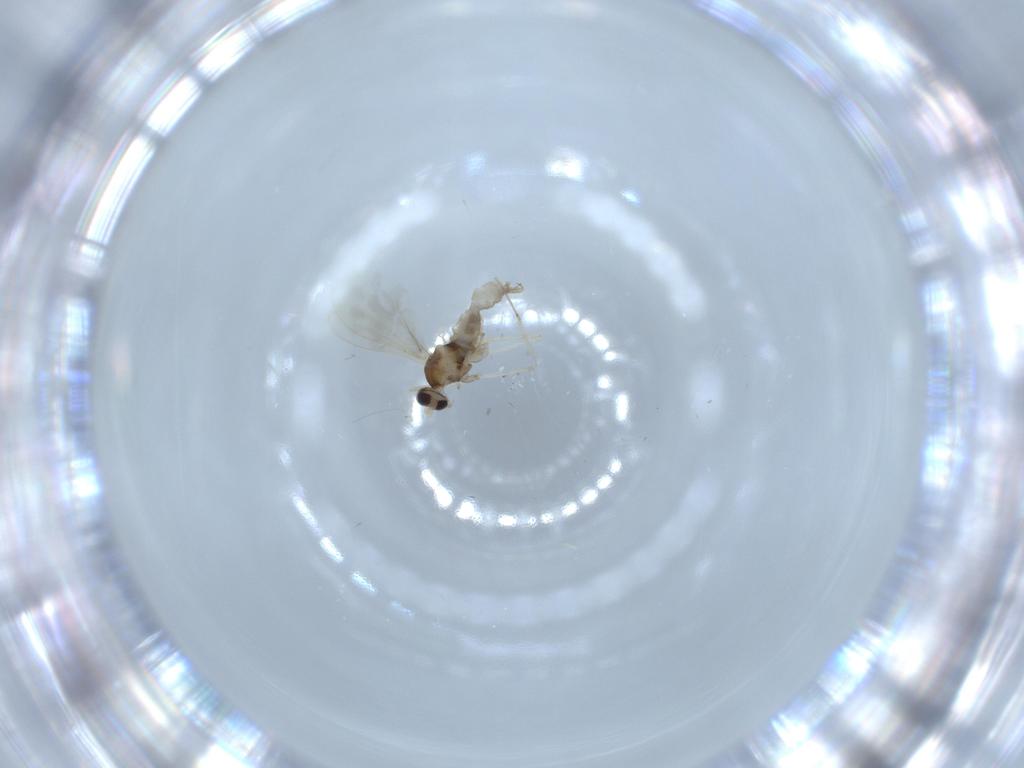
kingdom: Animalia
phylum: Arthropoda
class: Insecta
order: Diptera
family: Cecidomyiidae
